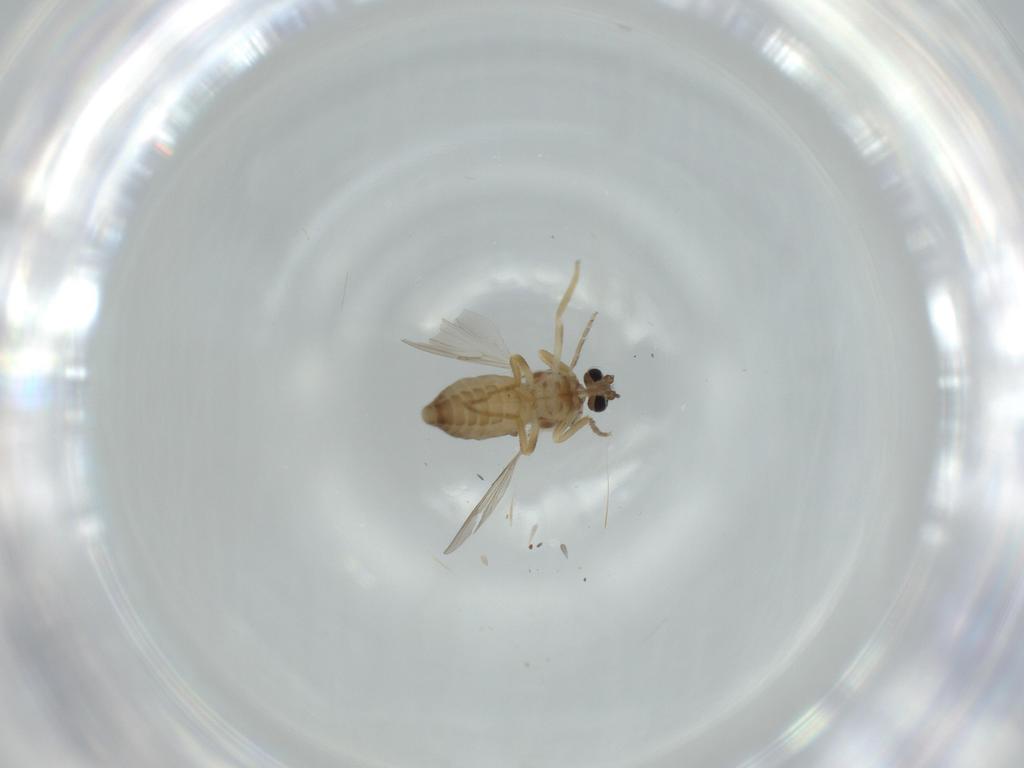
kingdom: Animalia
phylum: Arthropoda
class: Insecta
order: Diptera
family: Ceratopogonidae
